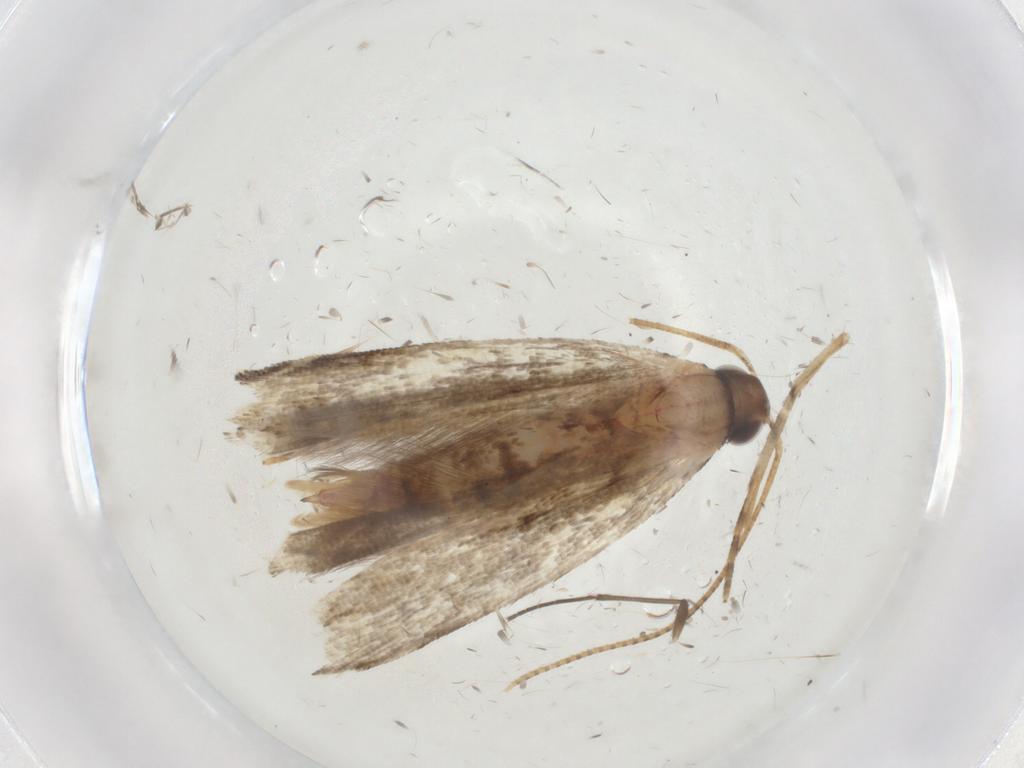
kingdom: Animalia
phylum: Arthropoda
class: Insecta
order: Lepidoptera
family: Gelechiidae
